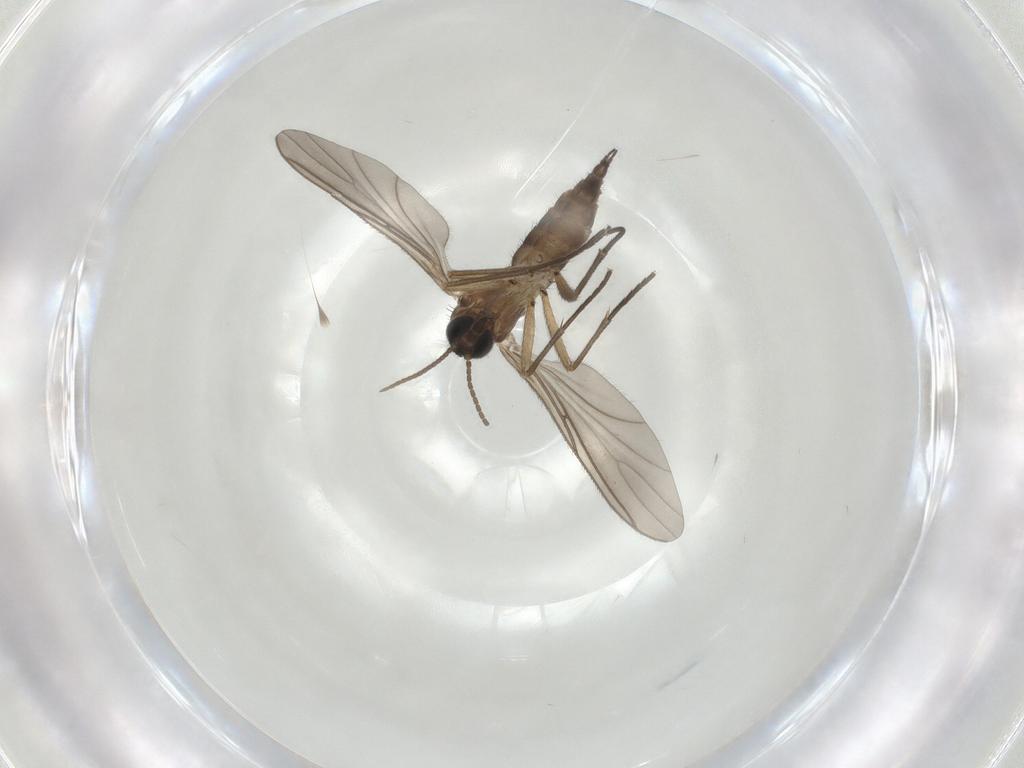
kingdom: Animalia
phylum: Arthropoda
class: Insecta
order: Diptera
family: Sciaridae
